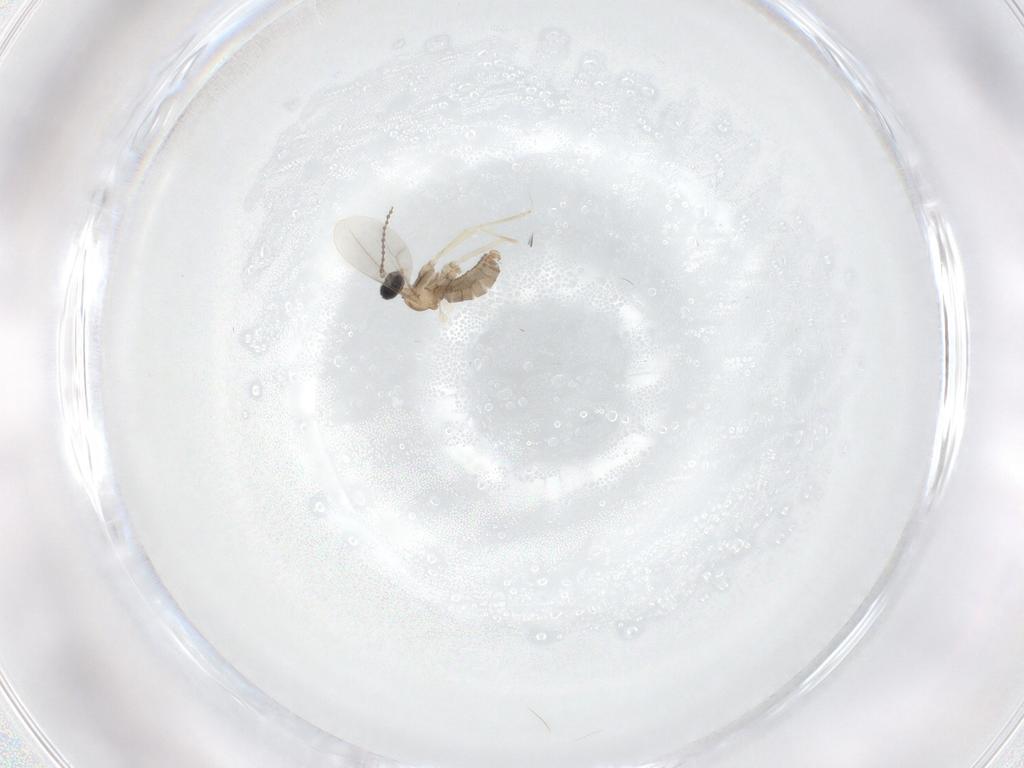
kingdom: Animalia
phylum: Arthropoda
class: Insecta
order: Diptera
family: Cecidomyiidae
